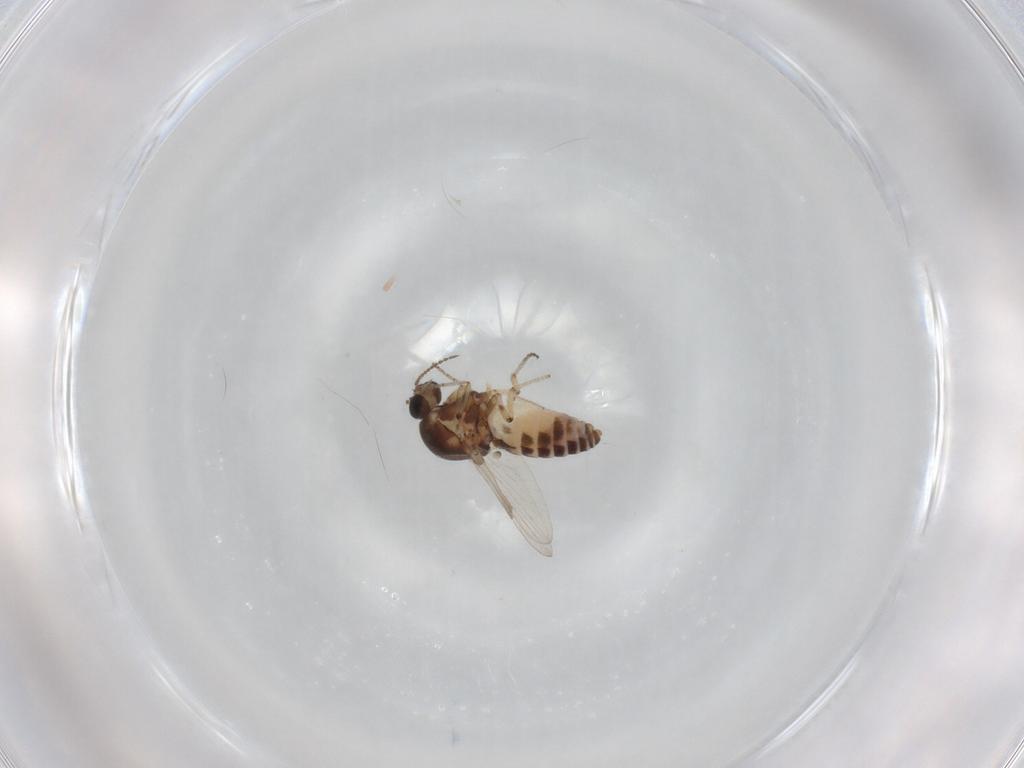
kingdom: Animalia
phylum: Arthropoda
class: Insecta
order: Diptera
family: Ceratopogonidae
